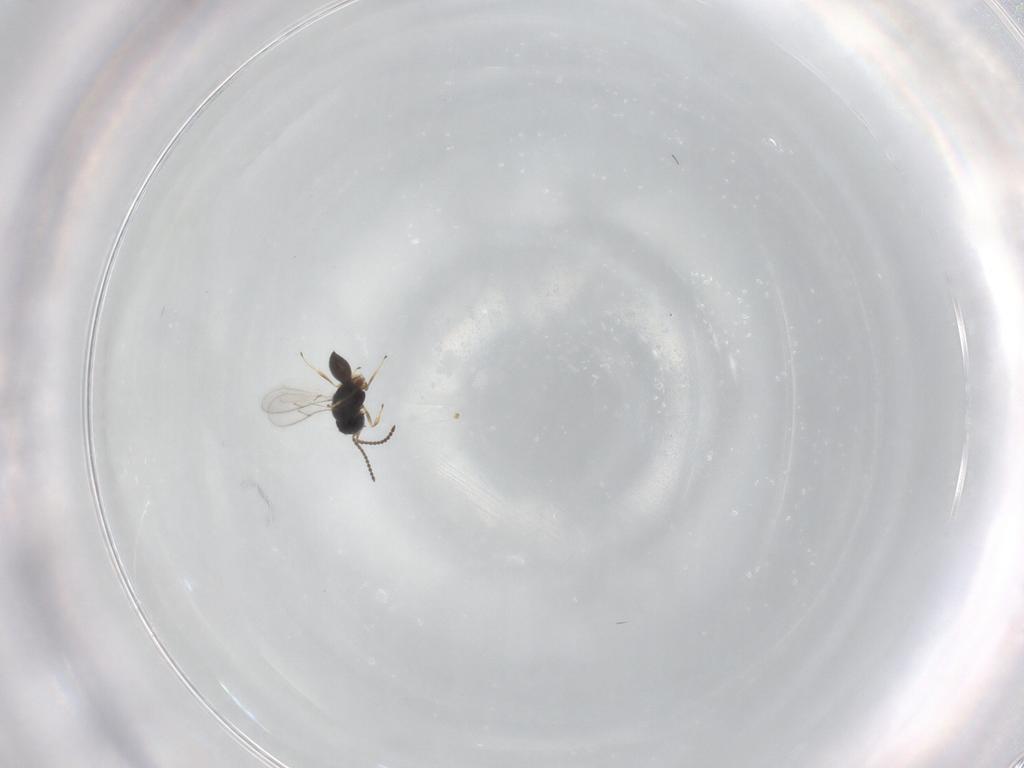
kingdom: Animalia
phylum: Arthropoda
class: Insecta
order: Hymenoptera
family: Scelionidae
